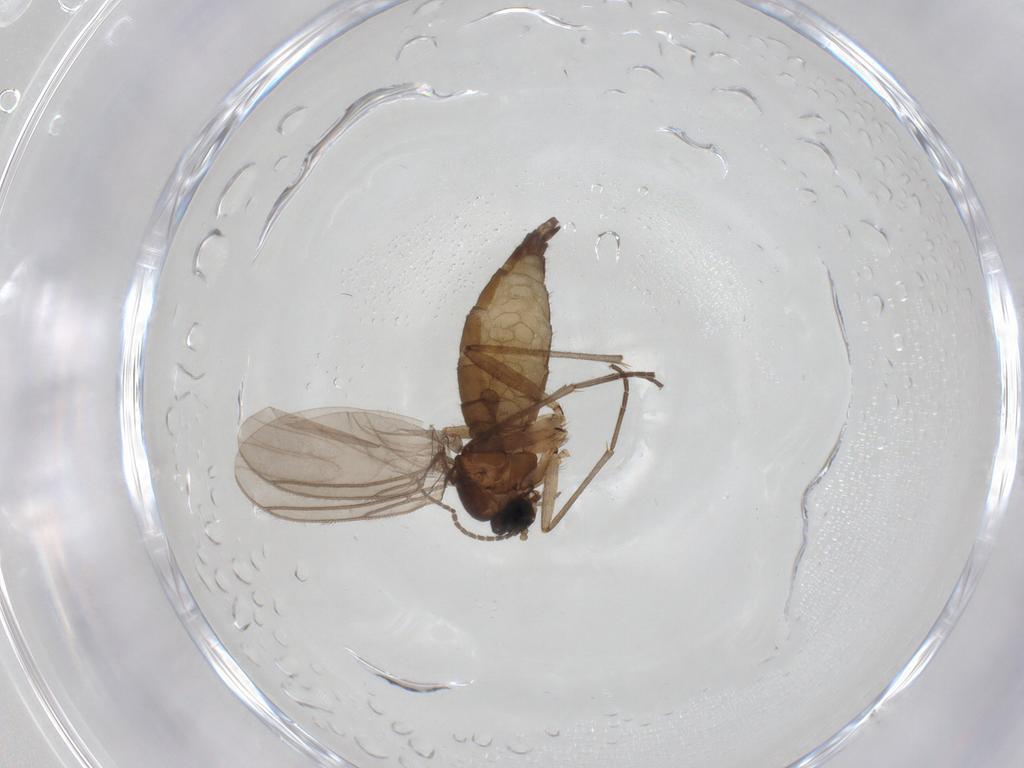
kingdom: Animalia
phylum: Arthropoda
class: Insecta
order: Diptera
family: Sciaridae
